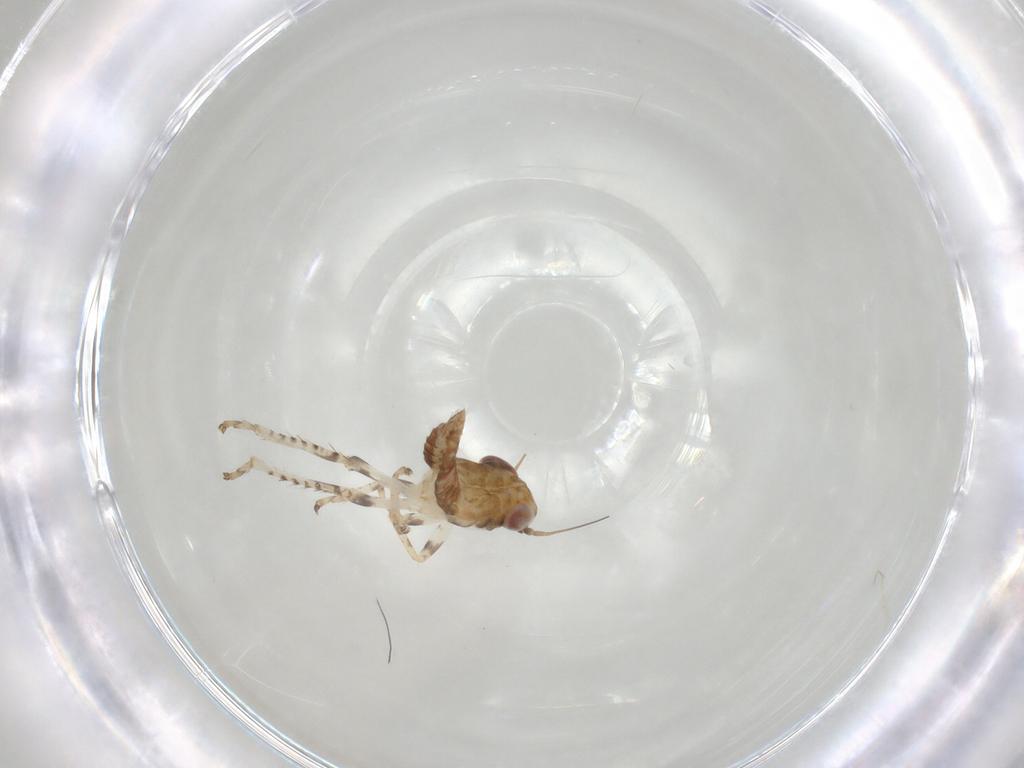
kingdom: Animalia
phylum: Arthropoda
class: Insecta
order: Hemiptera
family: Cicadellidae
